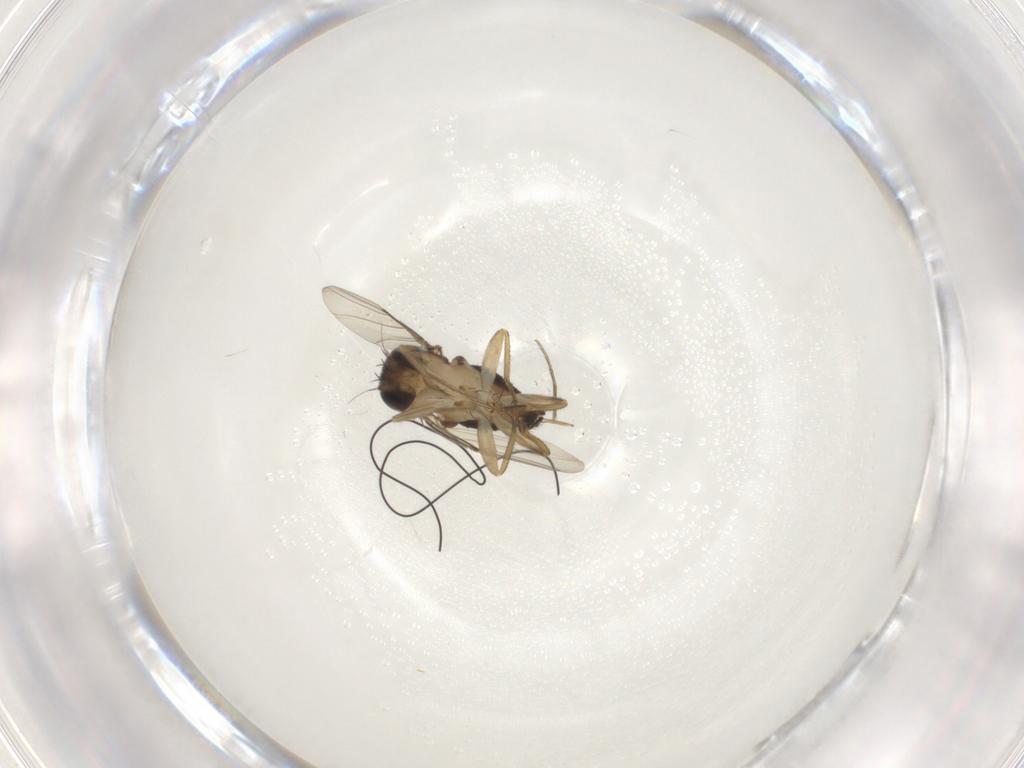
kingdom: Animalia
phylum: Arthropoda
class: Insecta
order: Diptera
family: Phoridae
